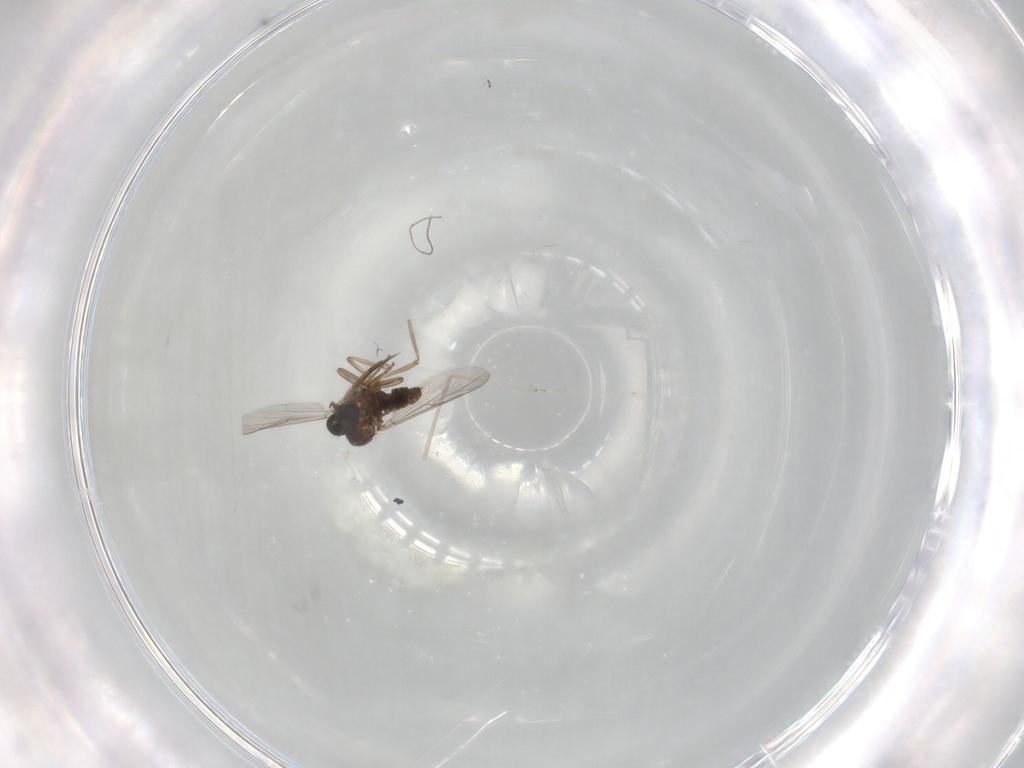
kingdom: Animalia
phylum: Arthropoda
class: Insecta
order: Diptera
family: Ceratopogonidae
